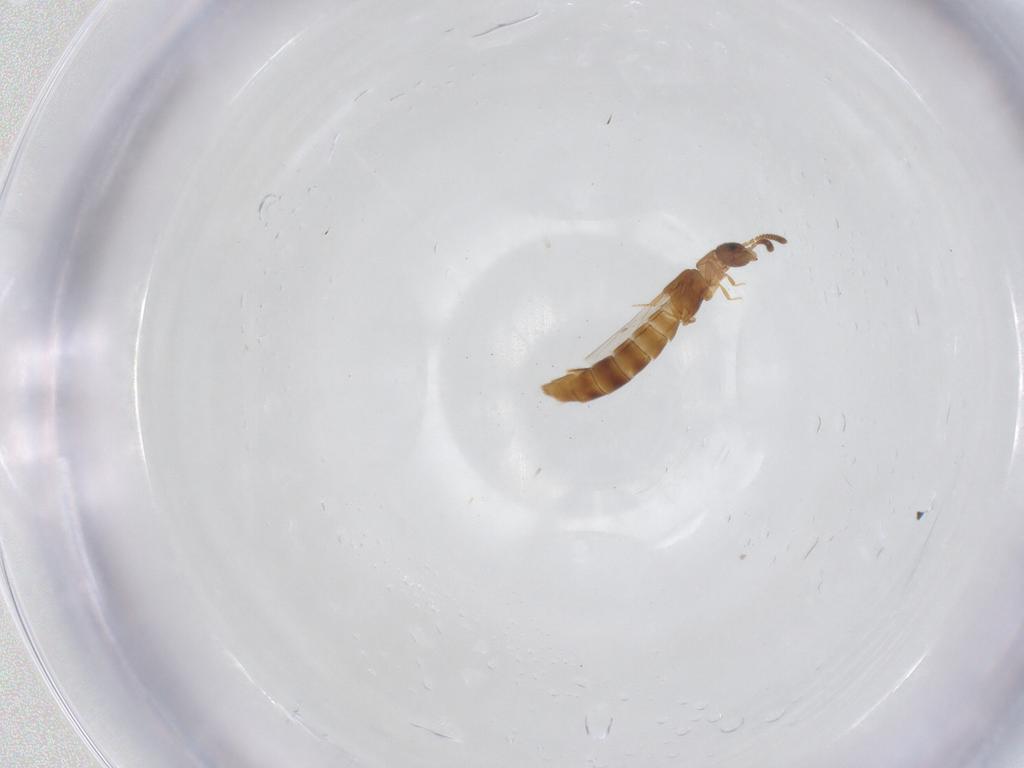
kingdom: Animalia
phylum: Arthropoda
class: Insecta
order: Coleoptera
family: Staphylinidae
